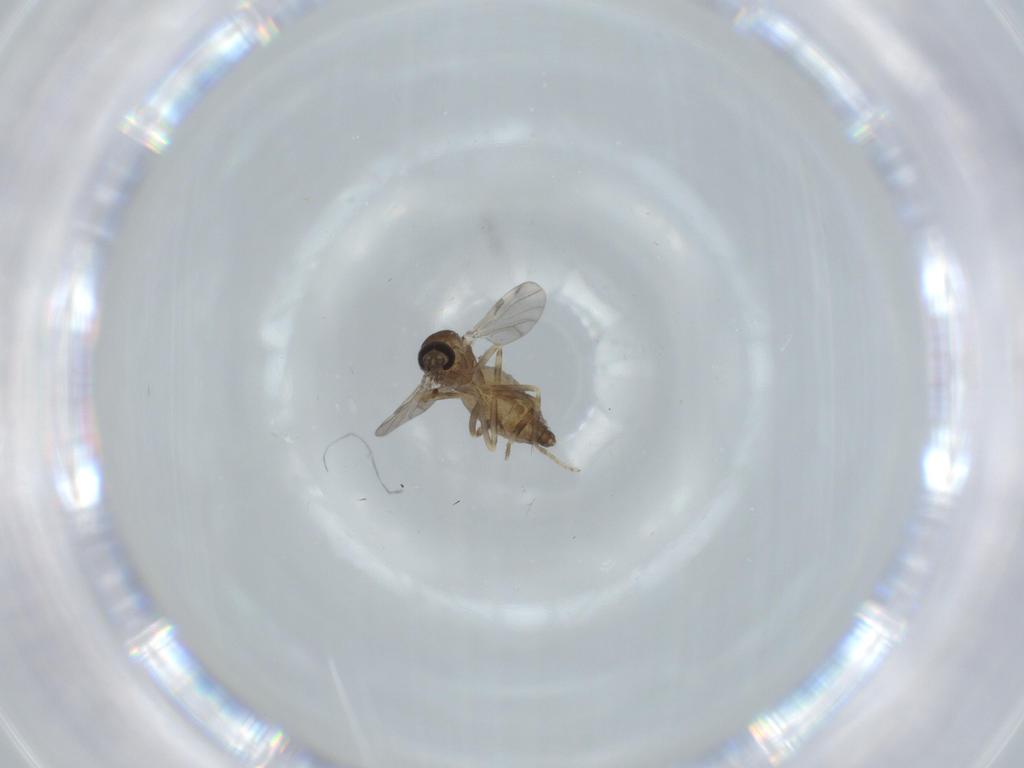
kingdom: Animalia
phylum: Arthropoda
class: Insecta
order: Diptera
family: Ceratopogonidae
